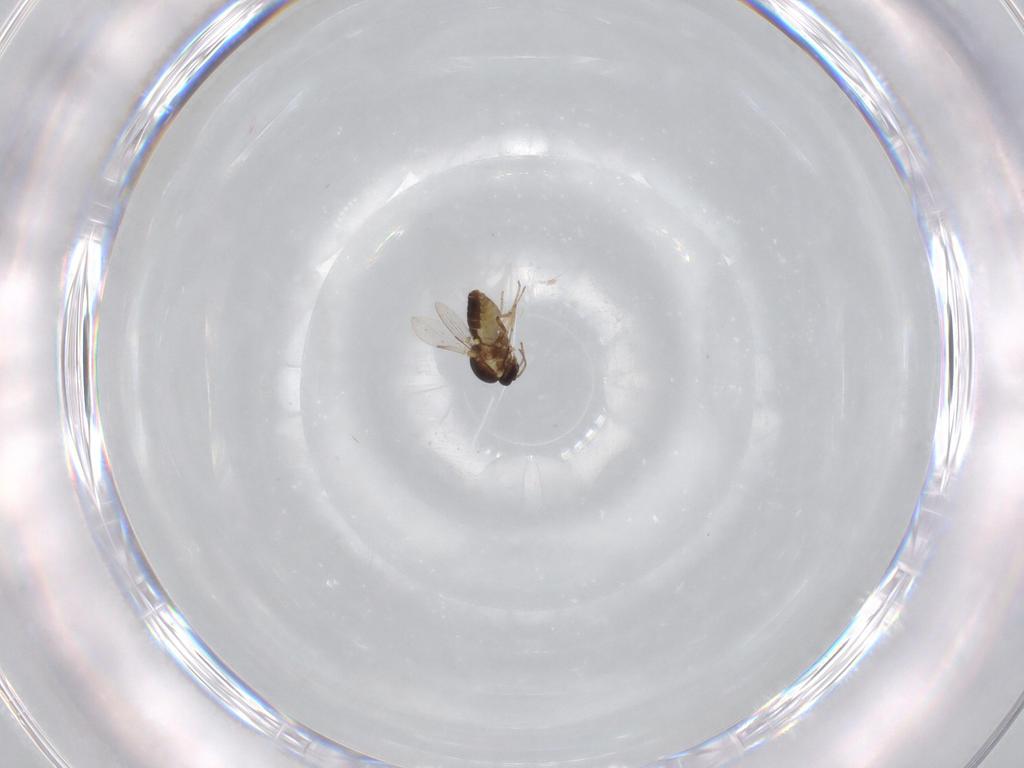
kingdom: Animalia
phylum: Arthropoda
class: Insecta
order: Diptera
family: Ceratopogonidae
